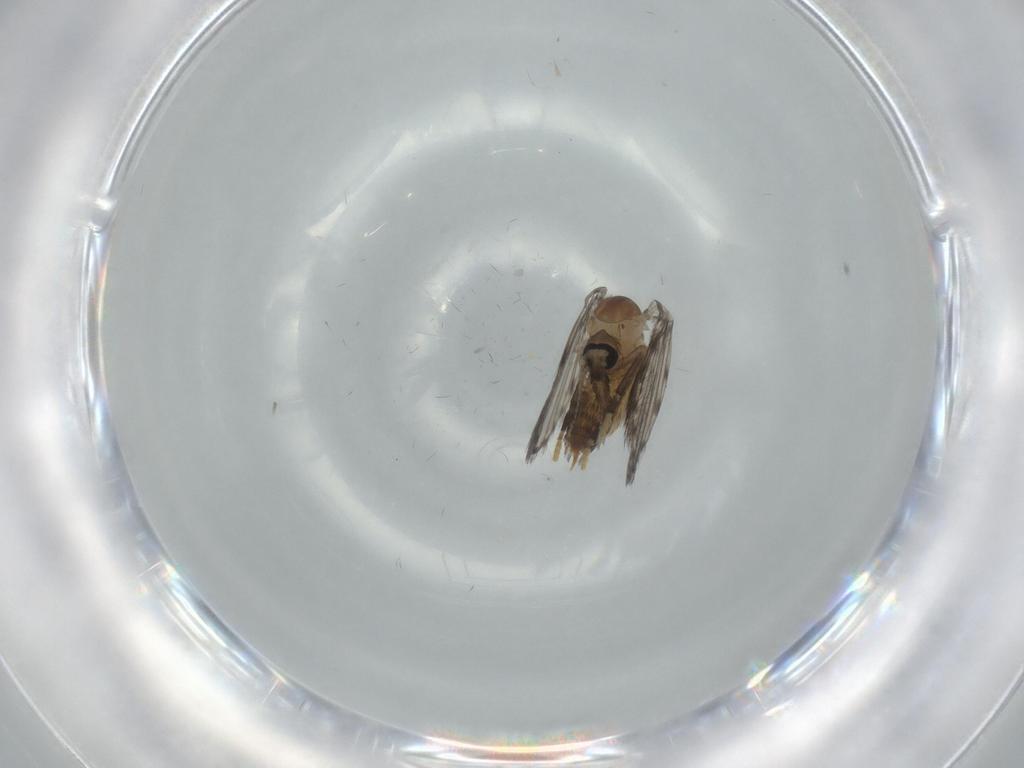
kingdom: Animalia
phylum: Arthropoda
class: Insecta
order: Diptera
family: Psychodidae
